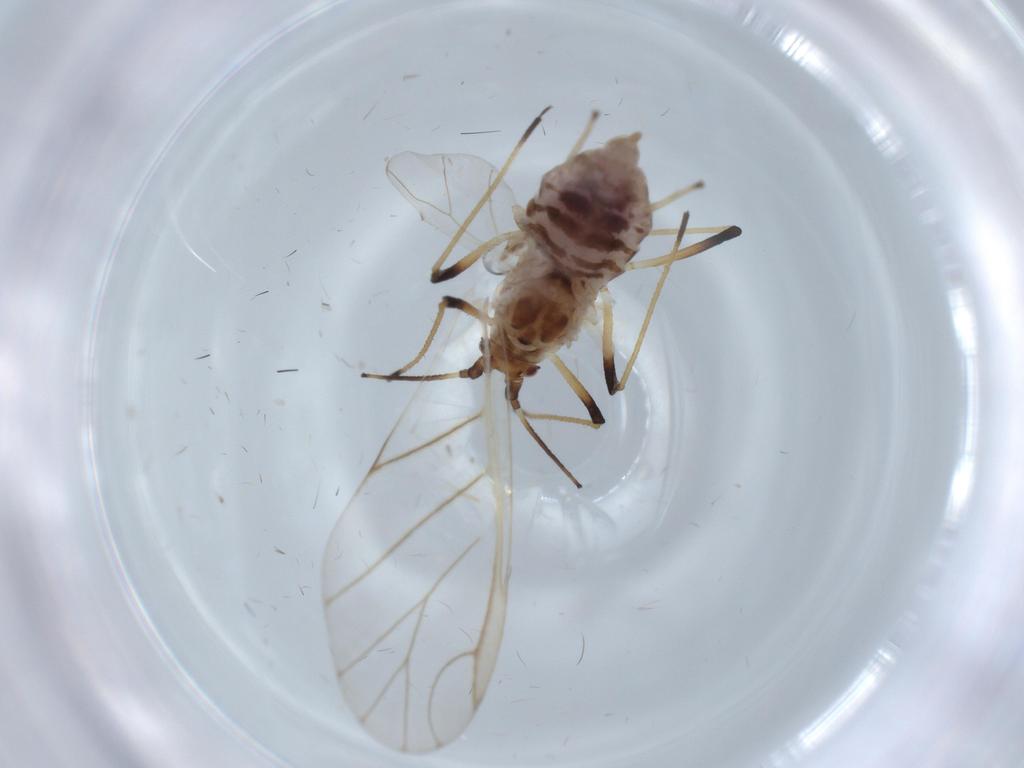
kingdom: Animalia
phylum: Arthropoda
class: Insecta
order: Hemiptera
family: Aphididae
